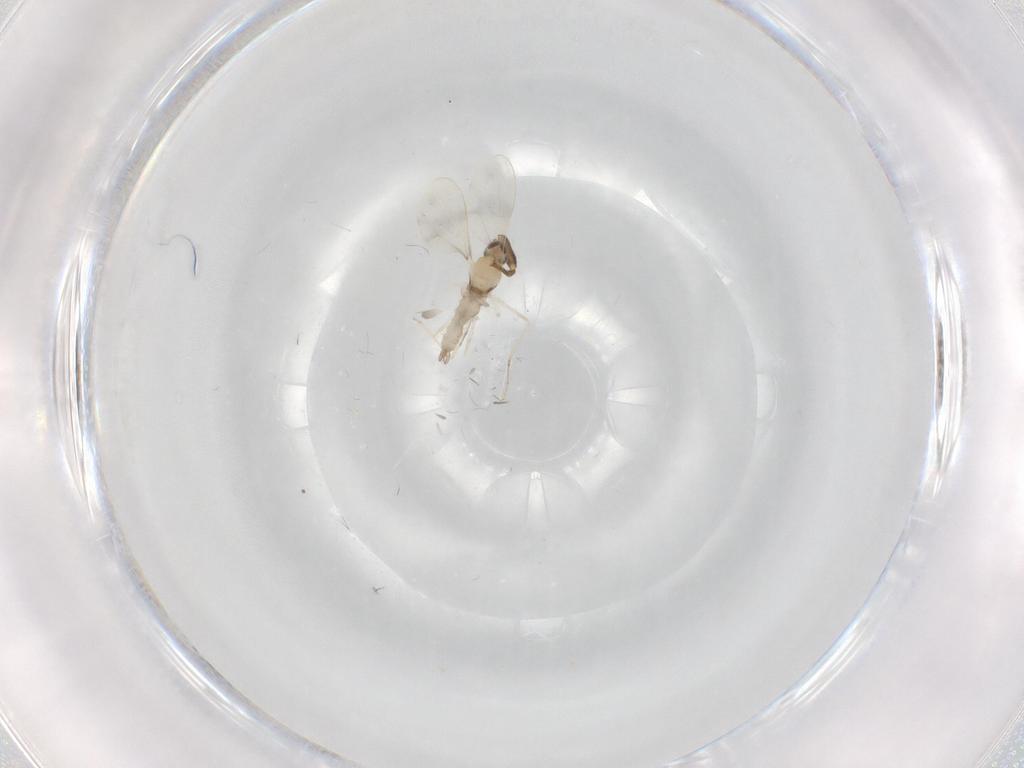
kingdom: Animalia
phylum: Arthropoda
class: Insecta
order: Diptera
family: Cecidomyiidae
